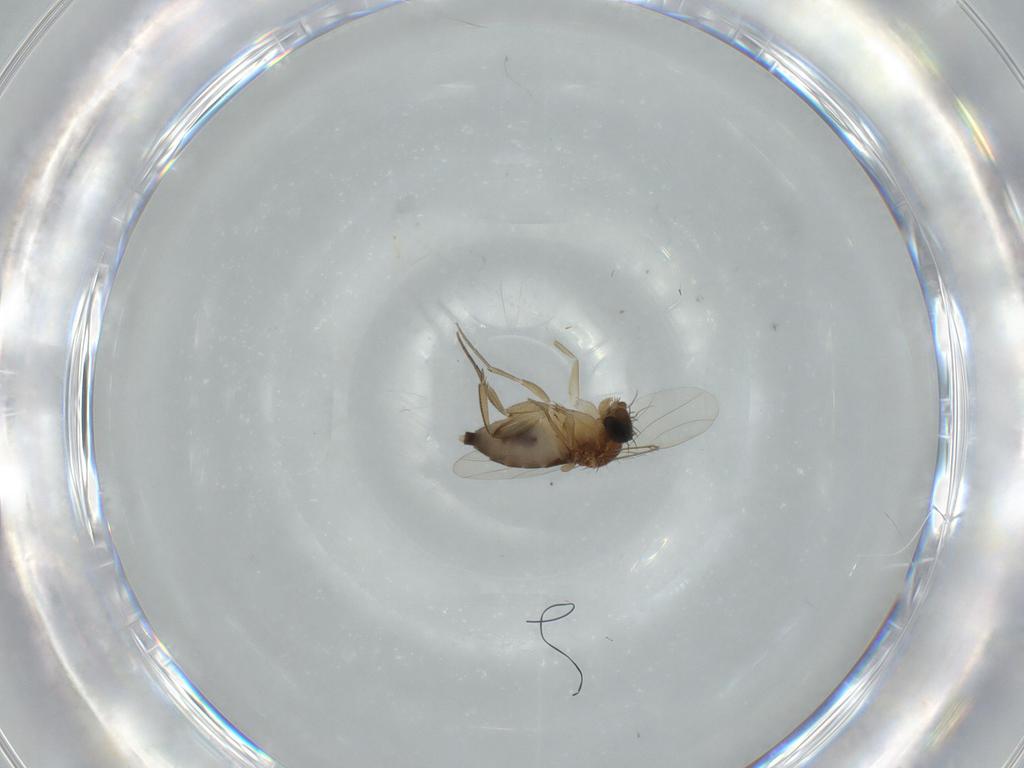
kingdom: Animalia
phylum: Arthropoda
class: Insecta
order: Diptera
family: Phoridae
